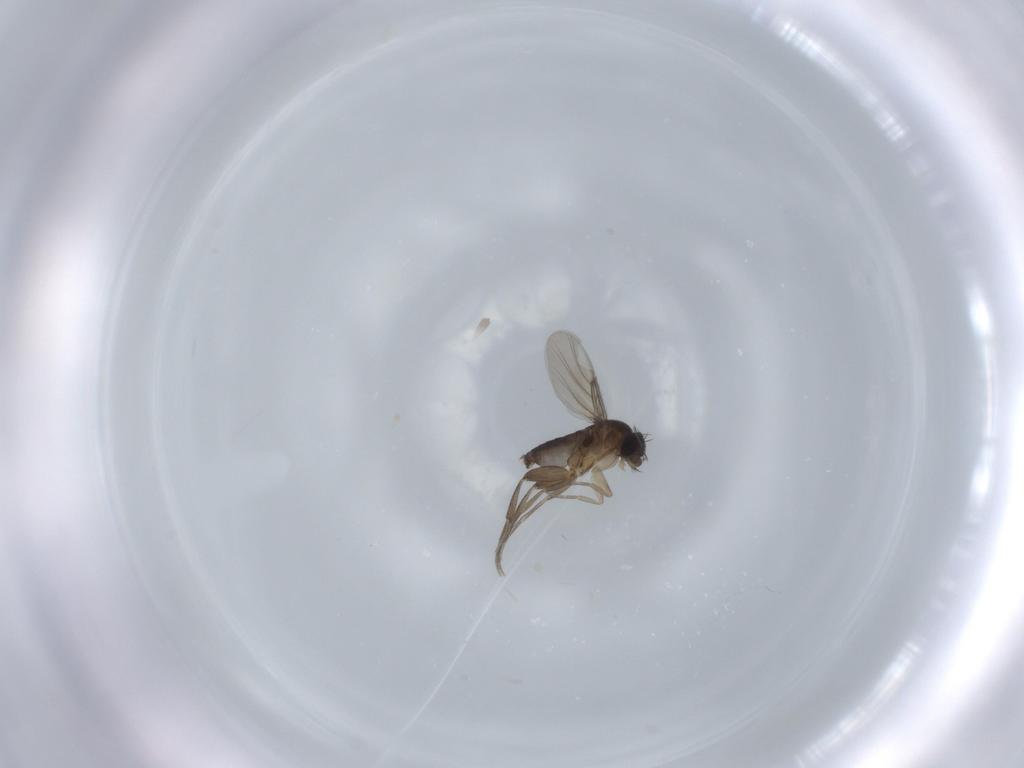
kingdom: Animalia
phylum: Arthropoda
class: Insecta
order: Diptera
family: Phoridae
